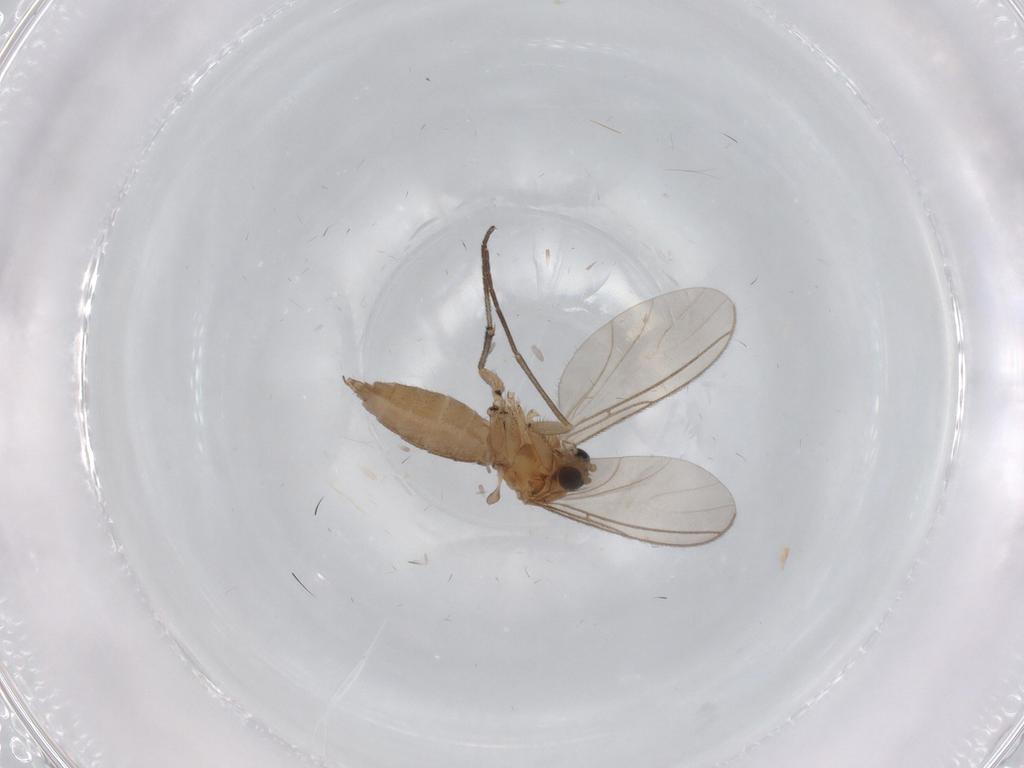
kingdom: Animalia
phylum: Arthropoda
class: Insecta
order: Diptera
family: Sciaridae
